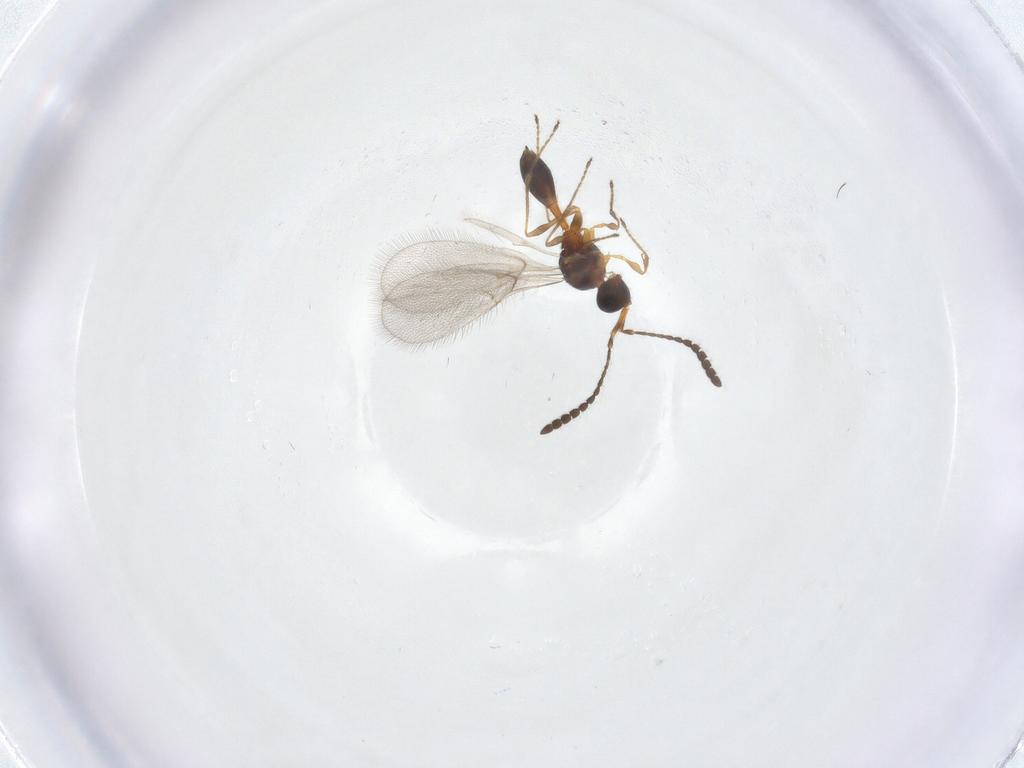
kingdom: Animalia
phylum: Arthropoda
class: Insecta
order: Hymenoptera
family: Diapriidae
